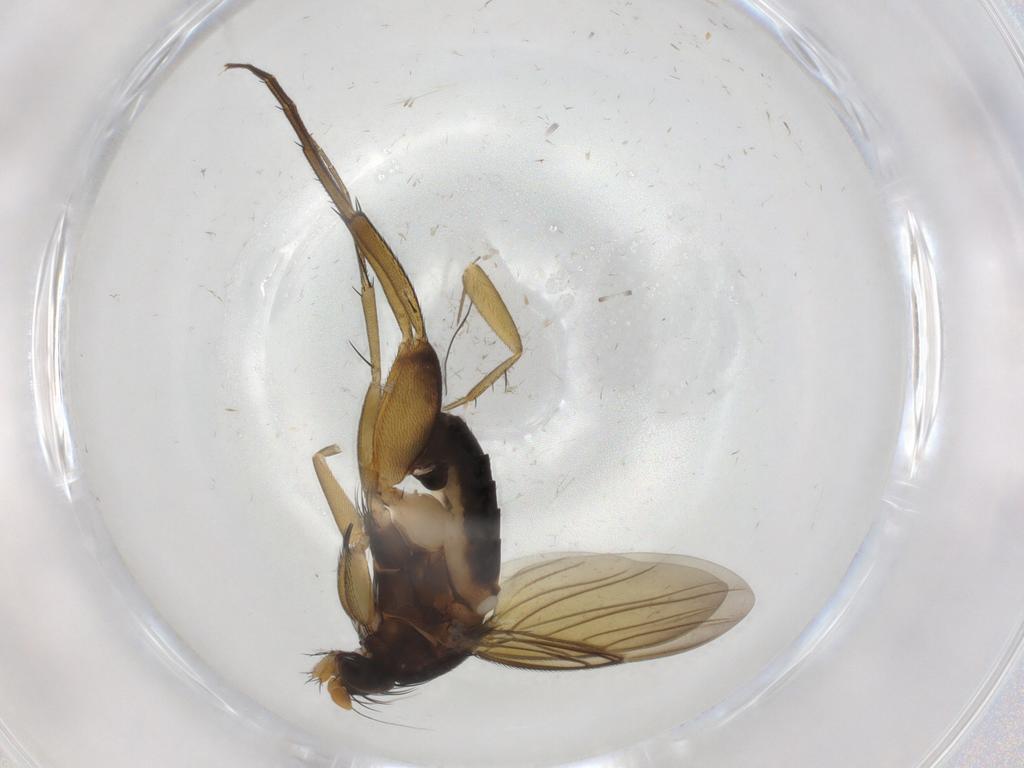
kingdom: Animalia
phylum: Arthropoda
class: Insecta
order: Diptera
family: Phoridae
